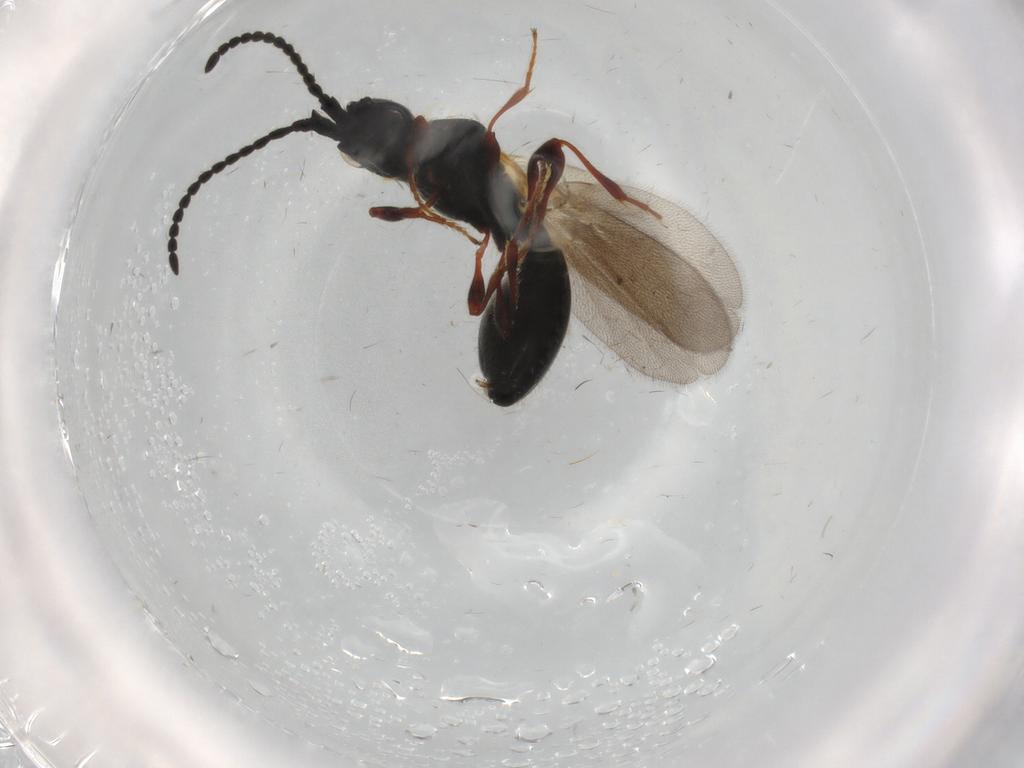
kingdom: Animalia
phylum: Arthropoda
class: Insecta
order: Hymenoptera
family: Diapriidae
